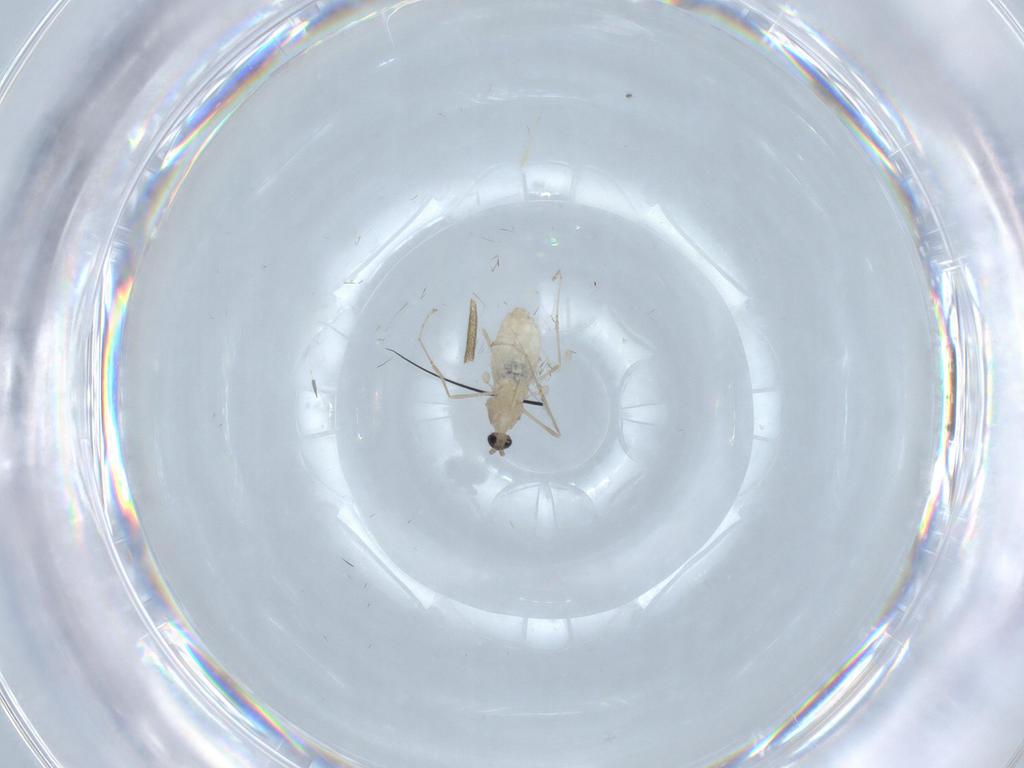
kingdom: Animalia
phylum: Arthropoda
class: Insecta
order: Diptera
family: Cecidomyiidae
